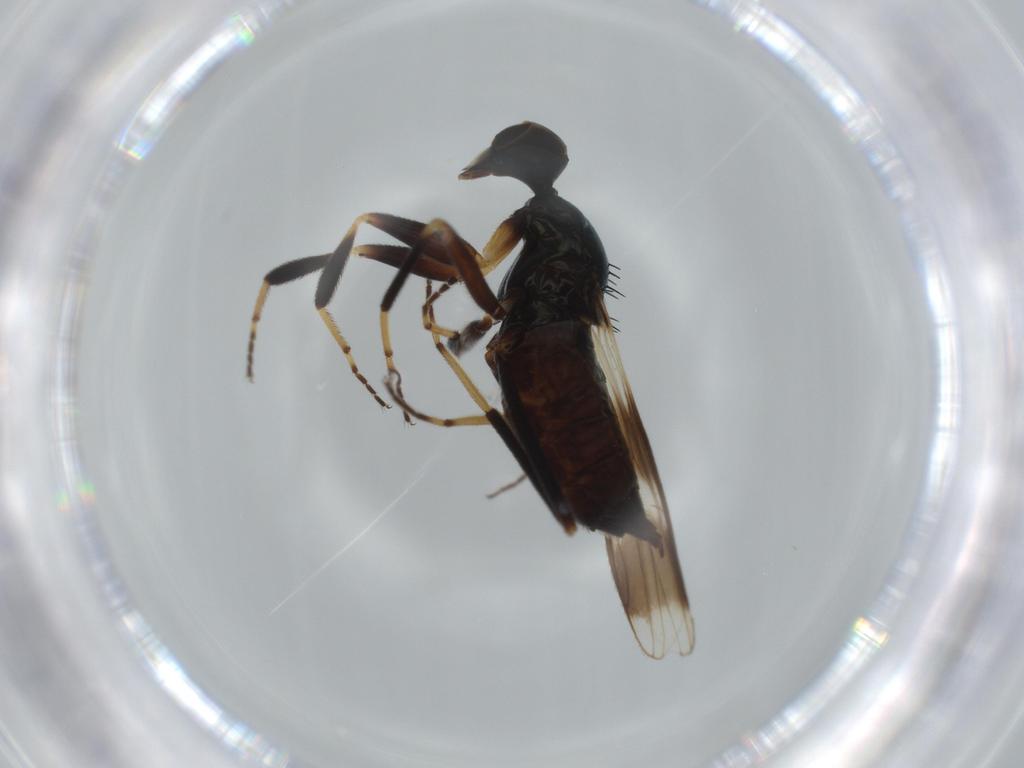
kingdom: Animalia
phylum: Arthropoda
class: Insecta
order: Diptera
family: Hybotidae
